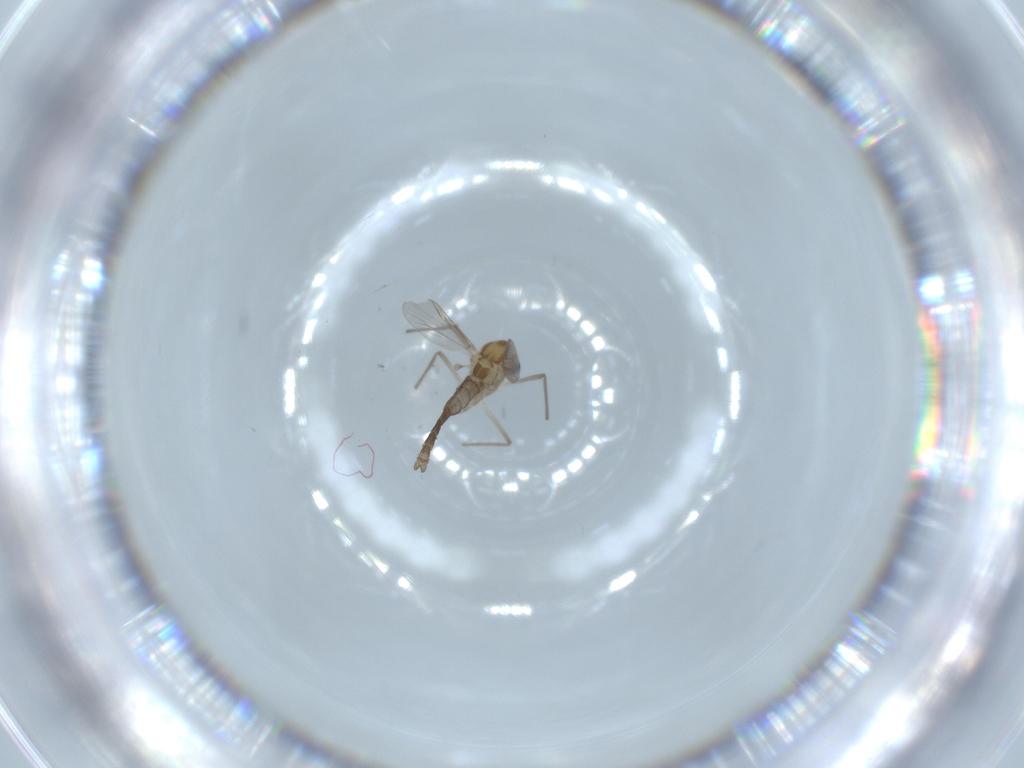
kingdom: Animalia
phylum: Arthropoda
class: Insecta
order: Diptera
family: Chironomidae
